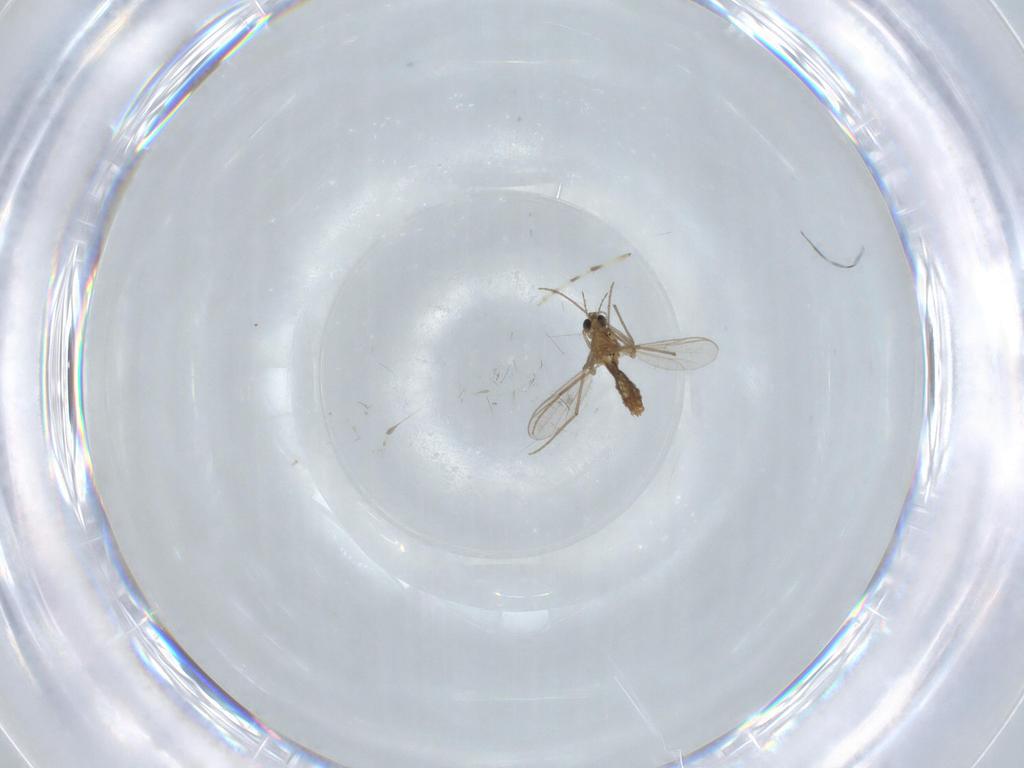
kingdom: Animalia
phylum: Arthropoda
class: Insecta
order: Diptera
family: Chironomidae
